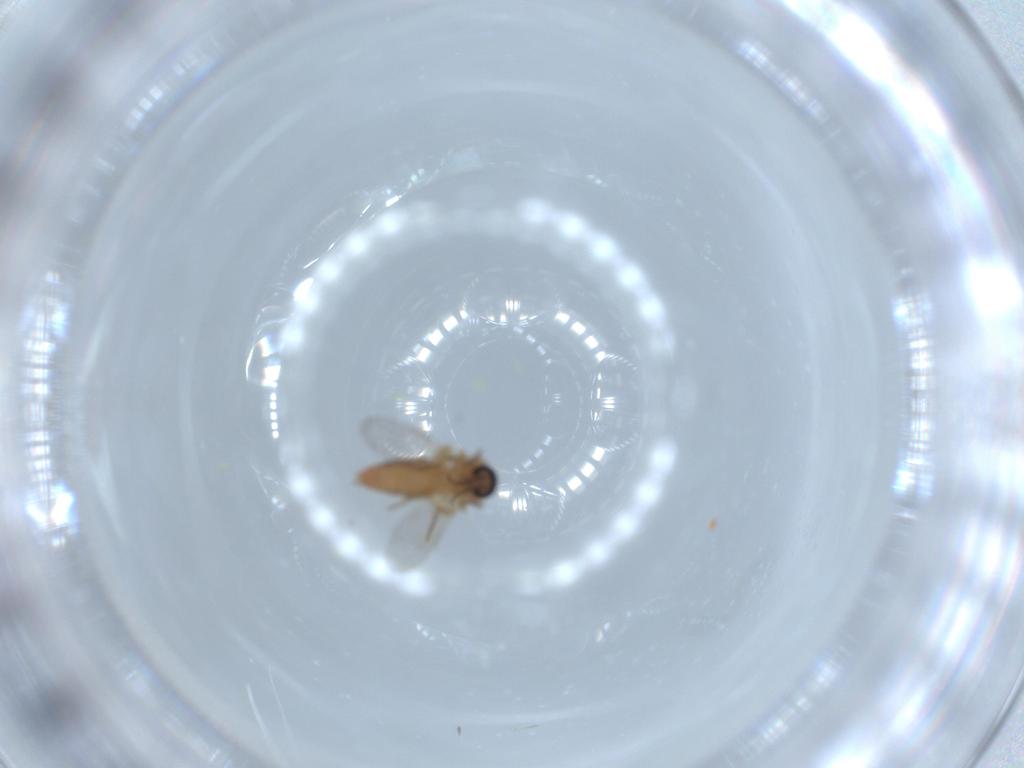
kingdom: Animalia
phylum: Arthropoda
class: Insecta
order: Diptera
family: Ceratopogonidae
